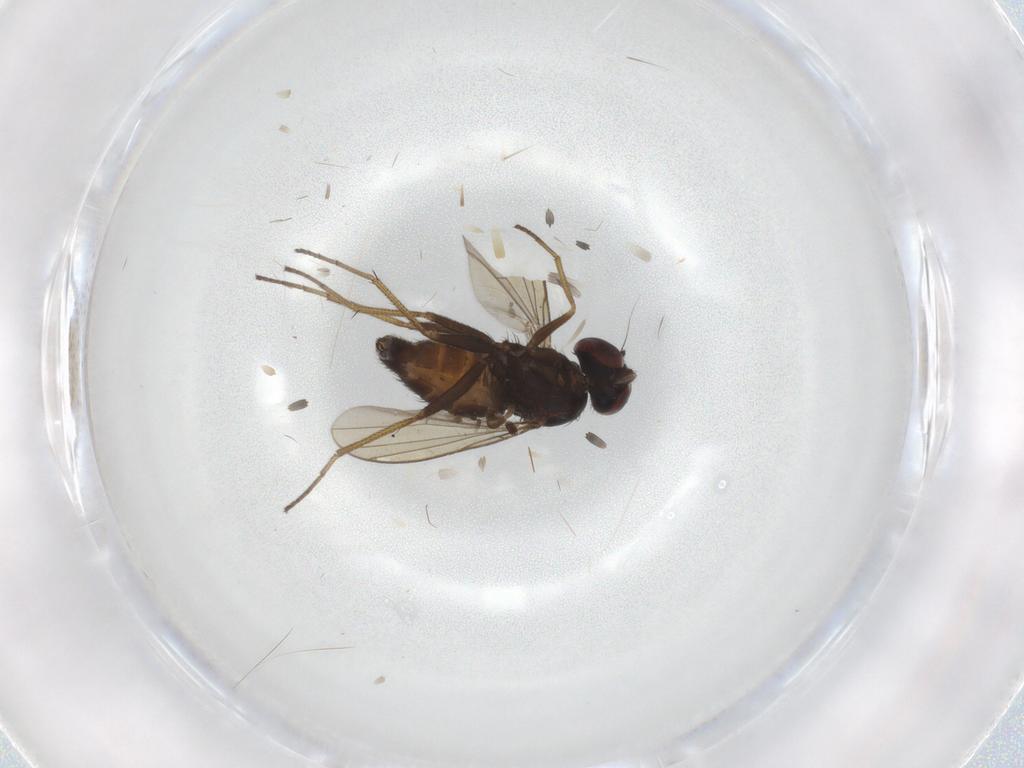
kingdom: Animalia
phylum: Arthropoda
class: Insecta
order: Diptera
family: Dolichopodidae
